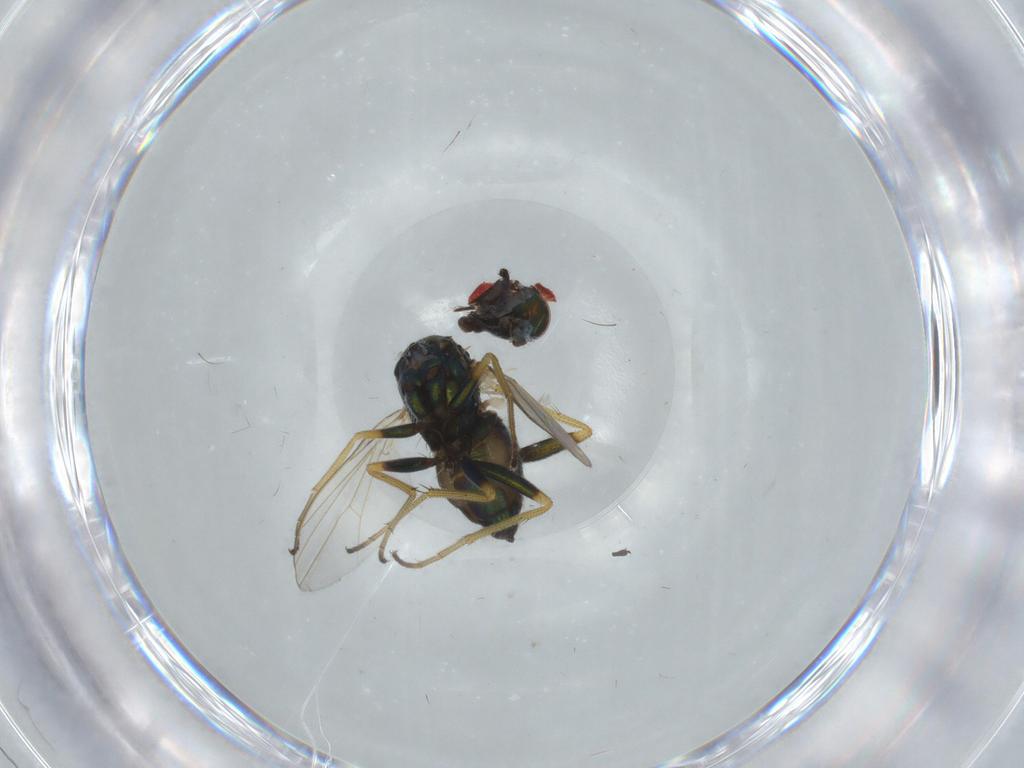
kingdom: Animalia
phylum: Arthropoda
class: Insecta
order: Diptera
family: Dolichopodidae
